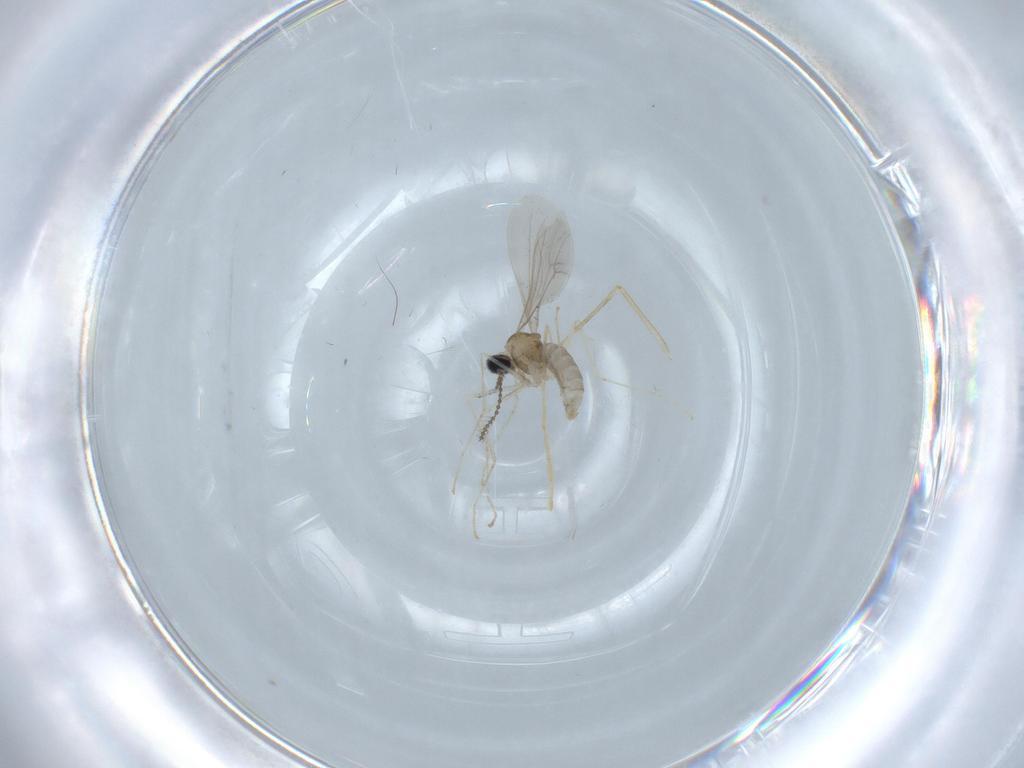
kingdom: Animalia
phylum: Arthropoda
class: Insecta
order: Diptera
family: Cecidomyiidae
